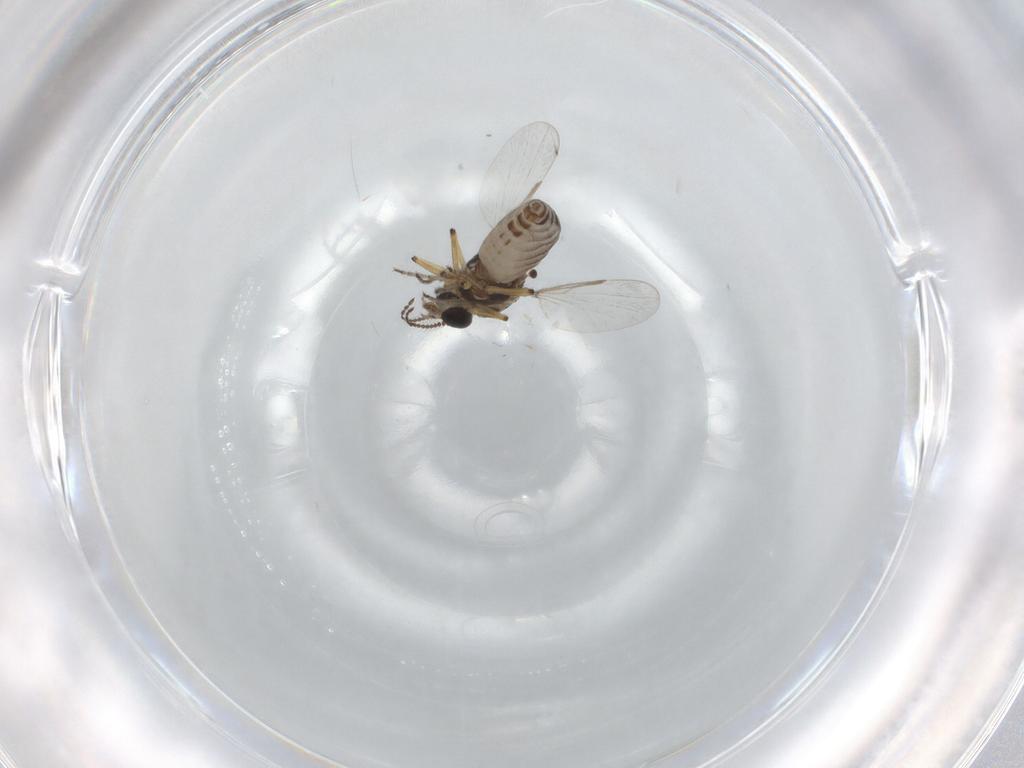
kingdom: Animalia
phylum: Arthropoda
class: Insecta
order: Diptera
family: Ceratopogonidae
